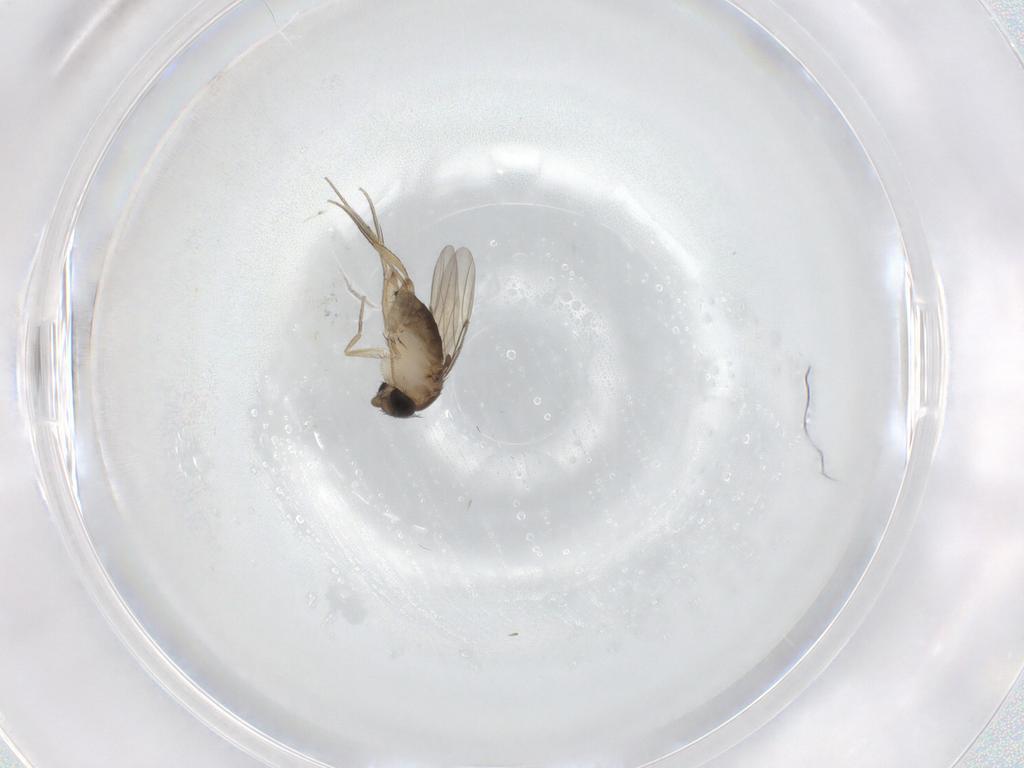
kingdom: Animalia
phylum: Arthropoda
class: Insecta
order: Diptera
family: Phoridae
